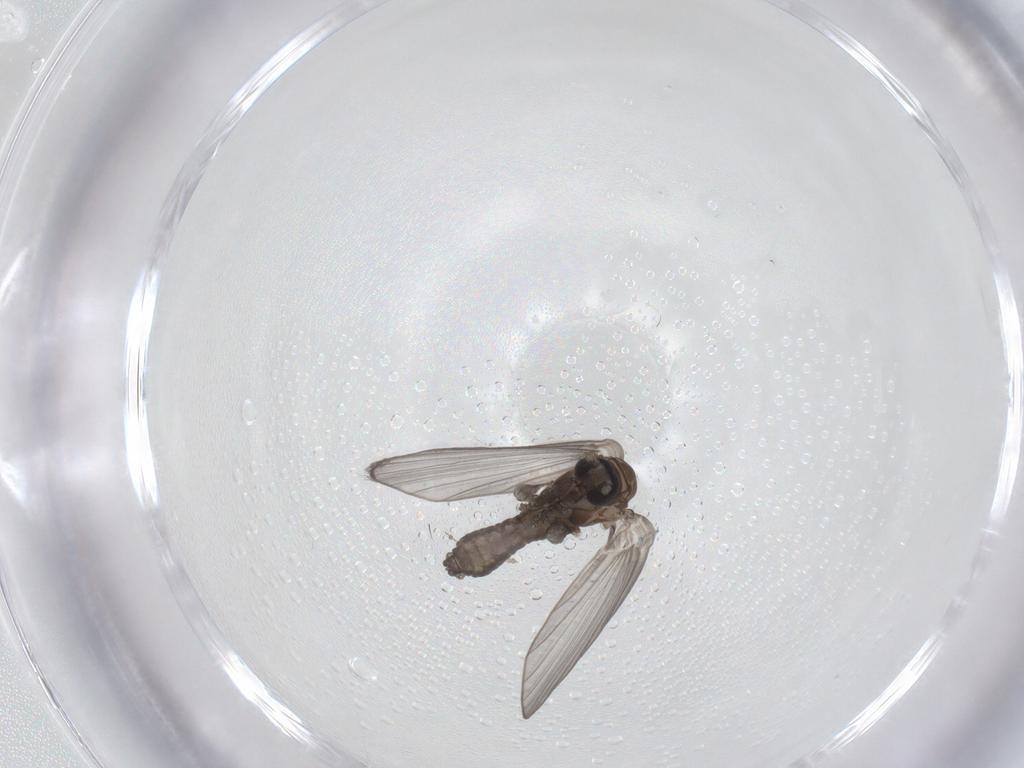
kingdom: Animalia
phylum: Arthropoda
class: Insecta
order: Diptera
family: Psychodidae
